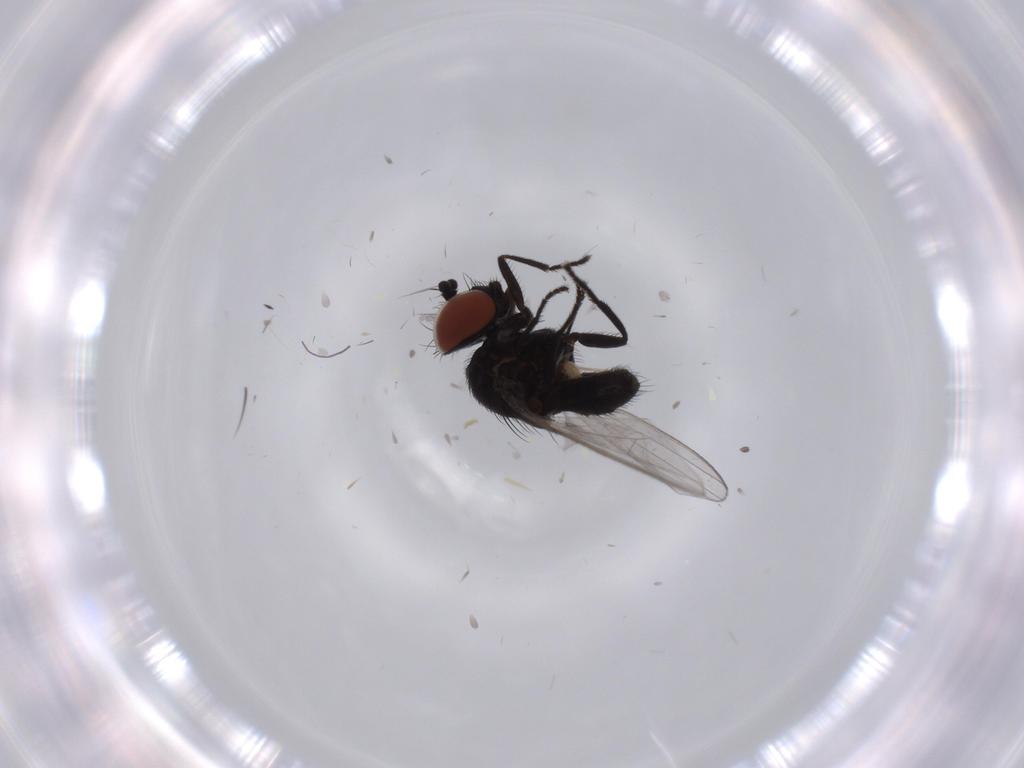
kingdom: Animalia
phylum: Arthropoda
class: Insecta
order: Diptera
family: Milichiidae
